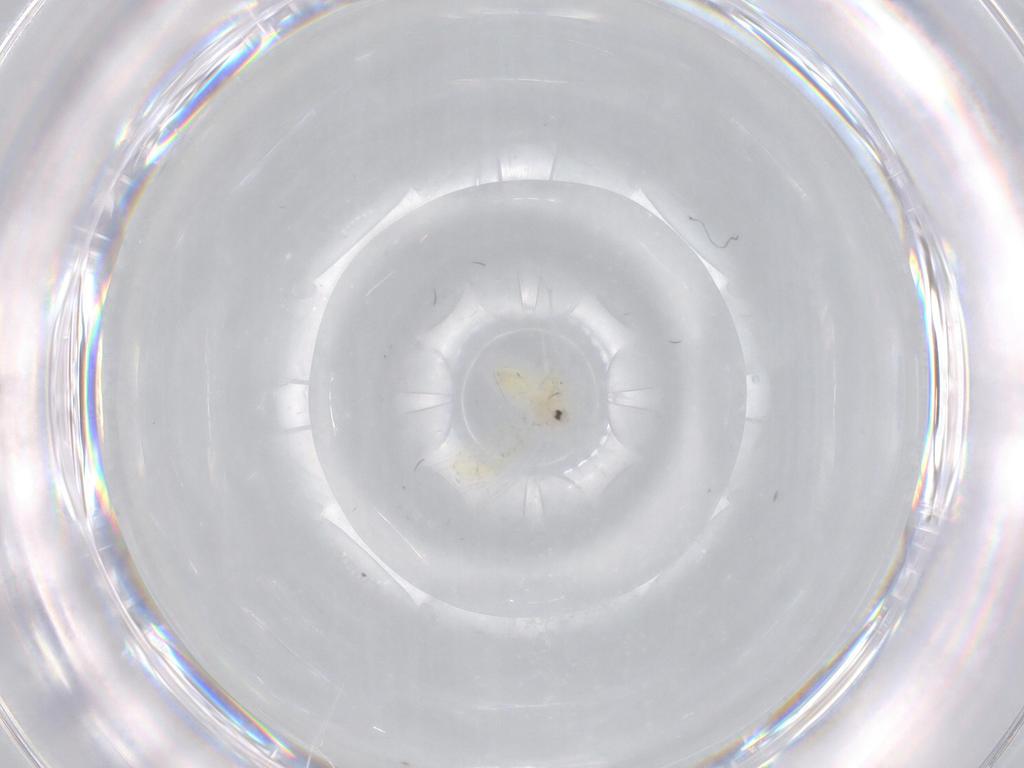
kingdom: Animalia
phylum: Arthropoda
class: Insecta
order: Hemiptera
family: Aleyrodidae
